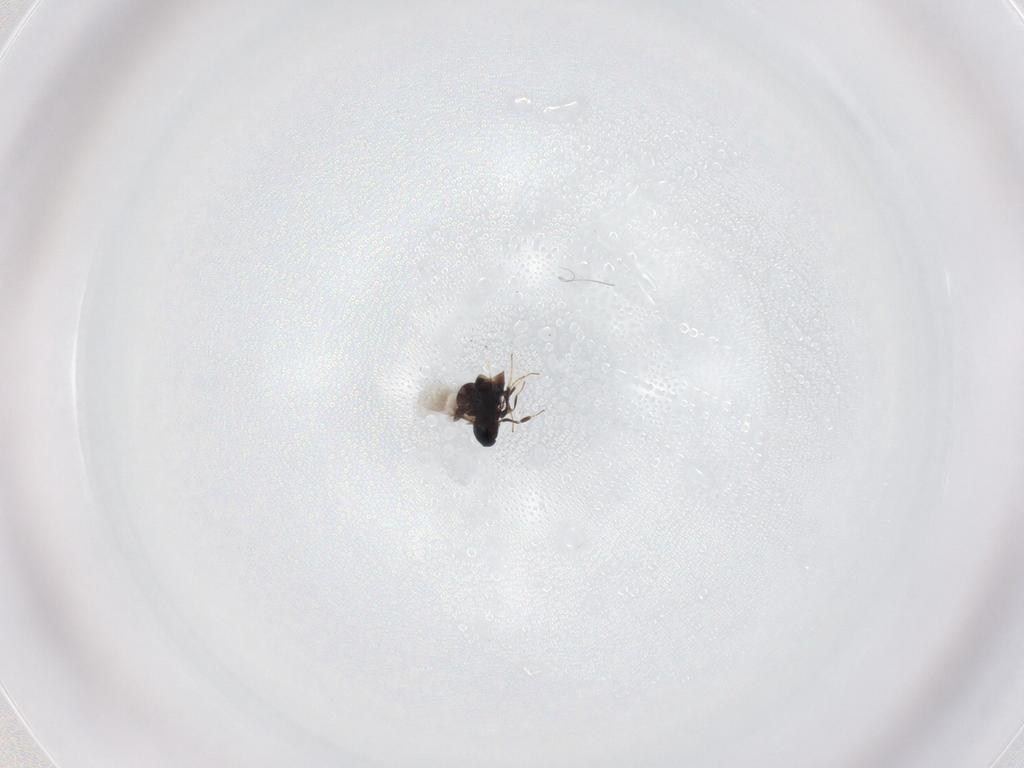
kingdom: Animalia
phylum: Arthropoda
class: Insecta
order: Hymenoptera
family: Signiphoridae
